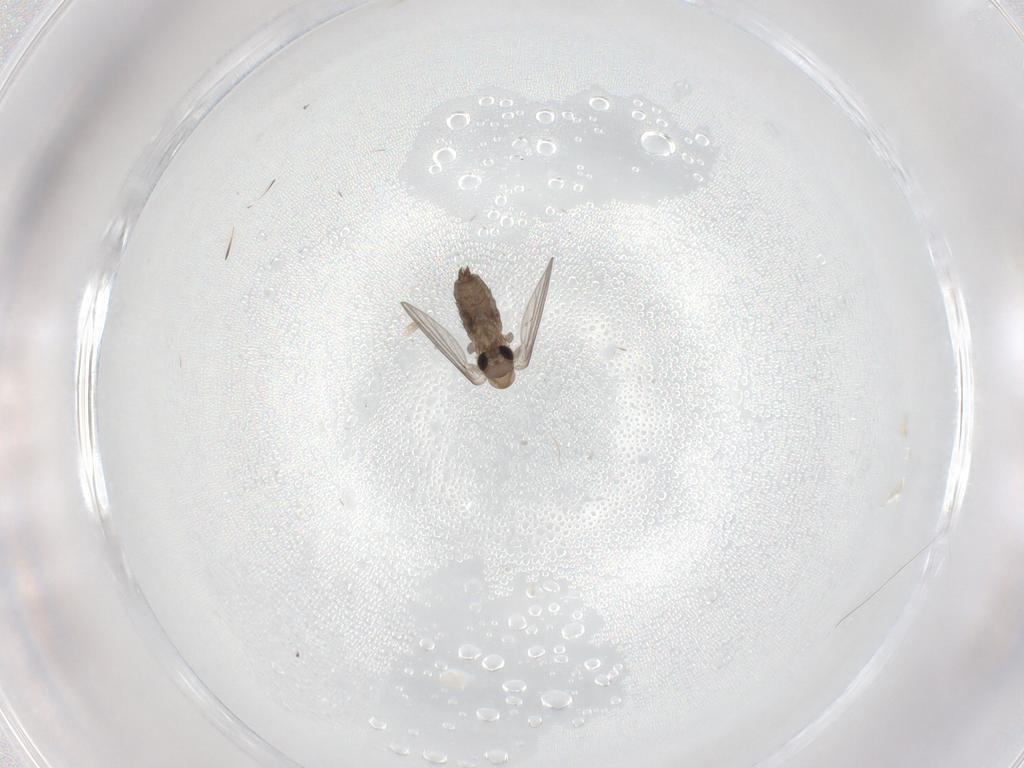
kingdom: Animalia
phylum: Arthropoda
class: Insecta
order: Diptera
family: Cecidomyiidae
